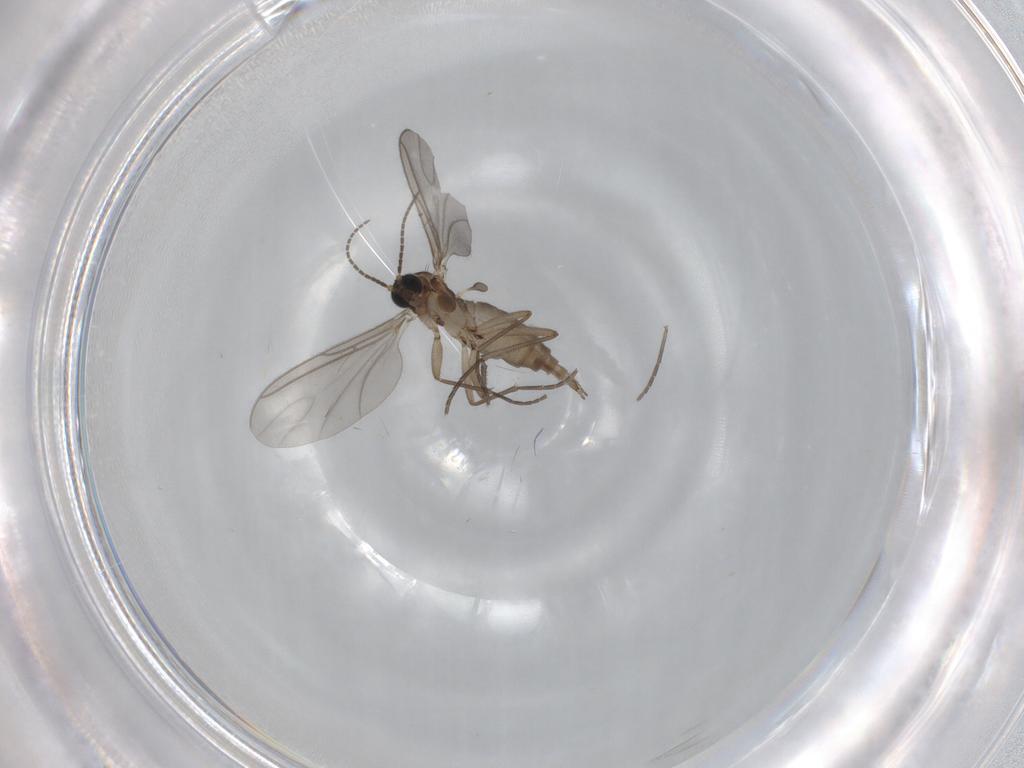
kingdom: Animalia
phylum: Arthropoda
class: Insecta
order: Diptera
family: Sciaridae
